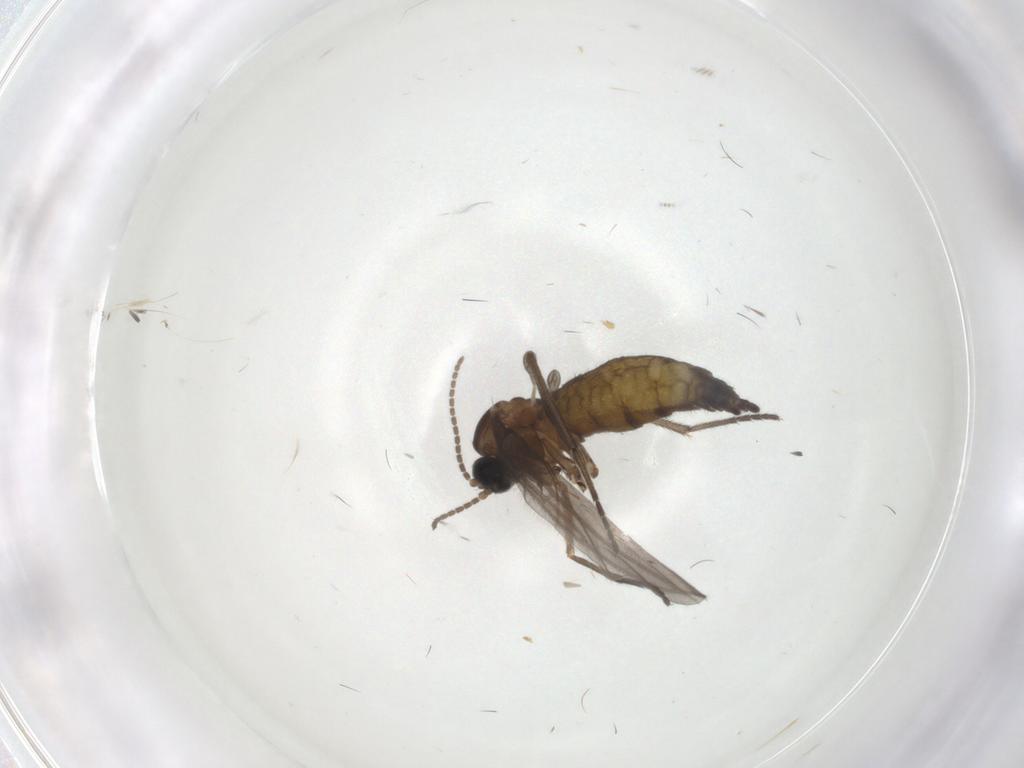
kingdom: Animalia
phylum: Arthropoda
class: Insecta
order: Diptera
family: Sciaridae
